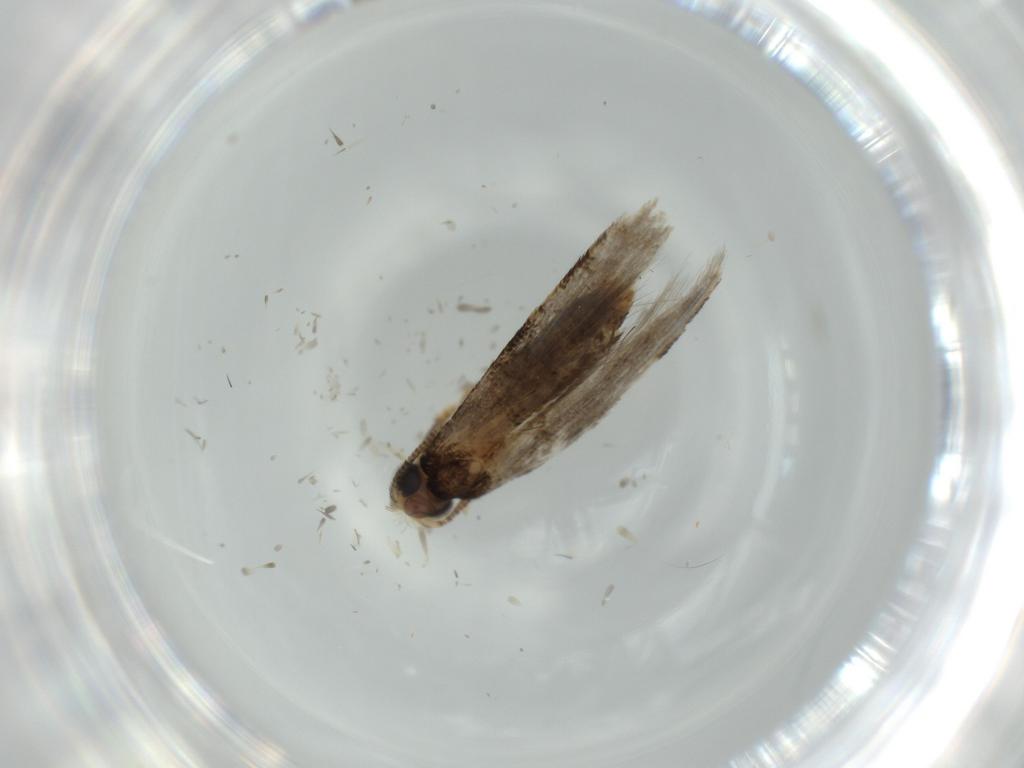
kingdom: Animalia
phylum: Arthropoda
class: Insecta
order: Lepidoptera
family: Tineidae
